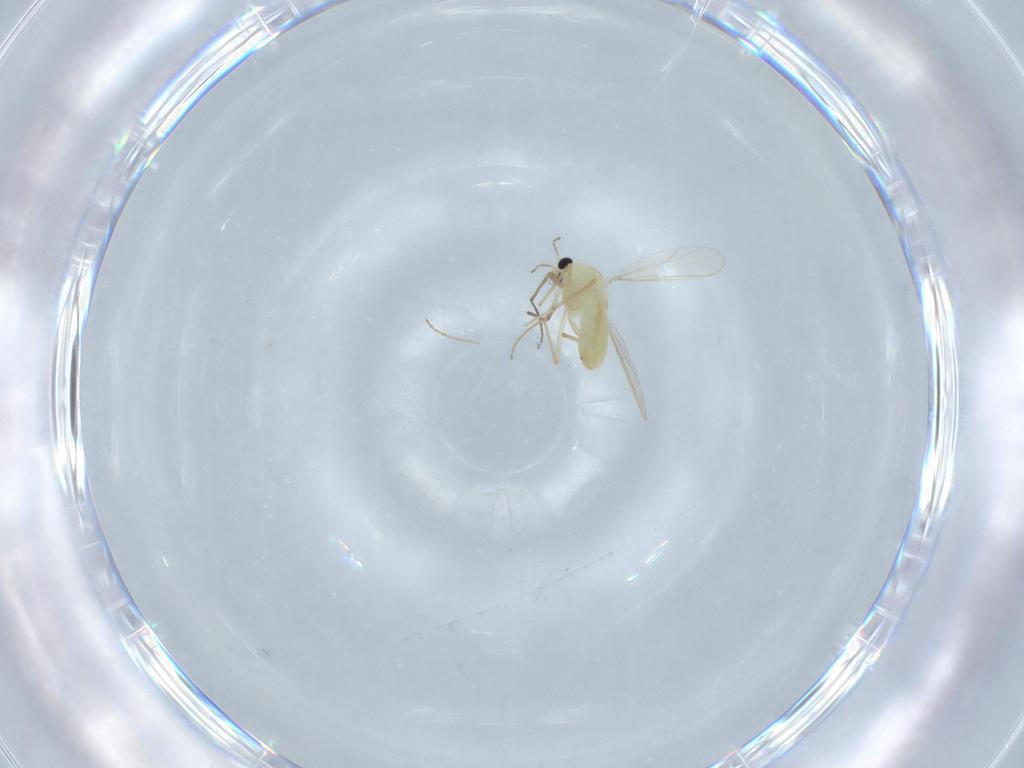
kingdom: Animalia
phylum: Arthropoda
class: Insecta
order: Diptera
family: Chironomidae
